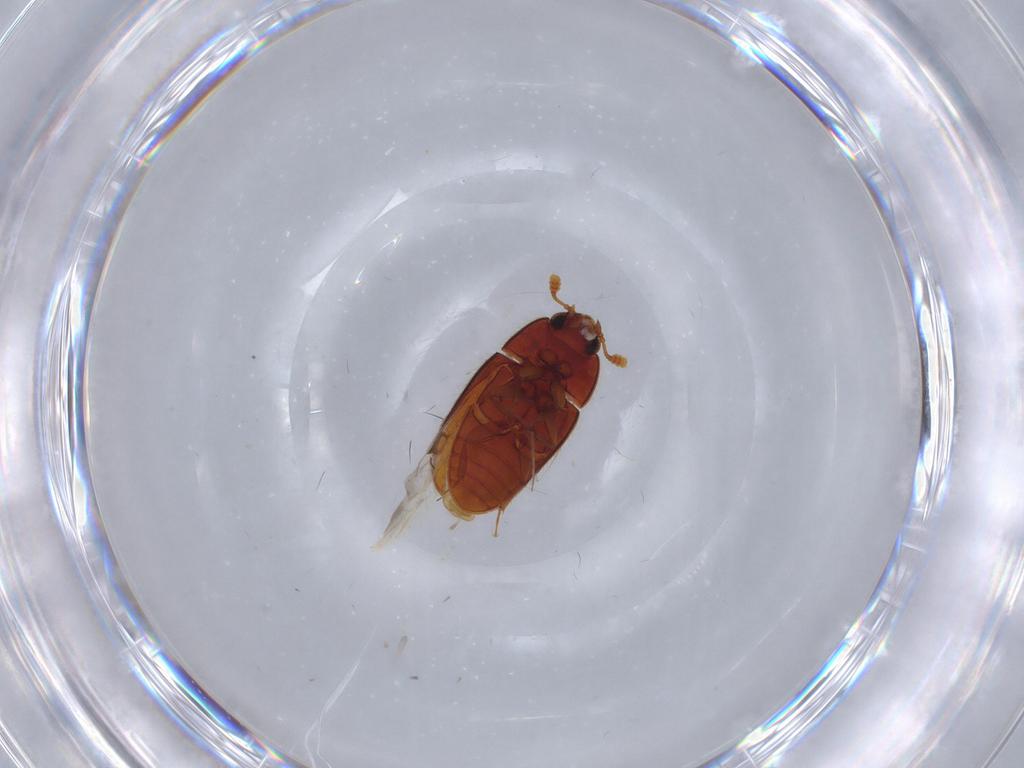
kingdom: Animalia
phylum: Arthropoda
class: Insecta
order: Coleoptera
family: Biphyllidae
